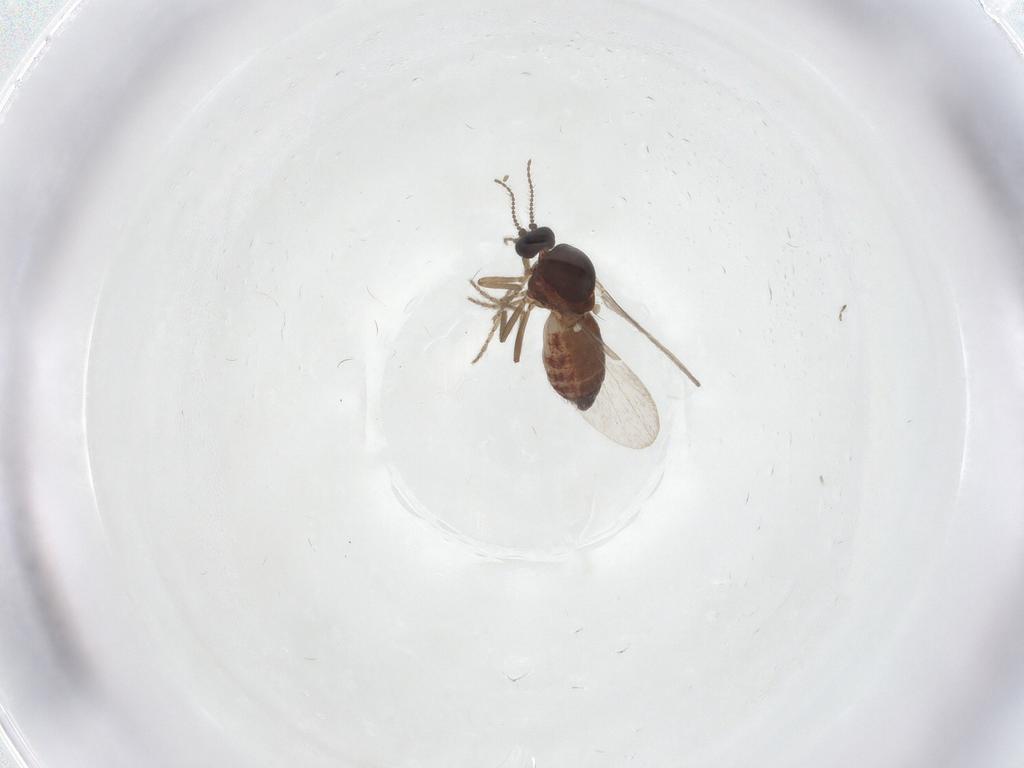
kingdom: Animalia
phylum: Arthropoda
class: Insecta
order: Diptera
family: Ceratopogonidae
